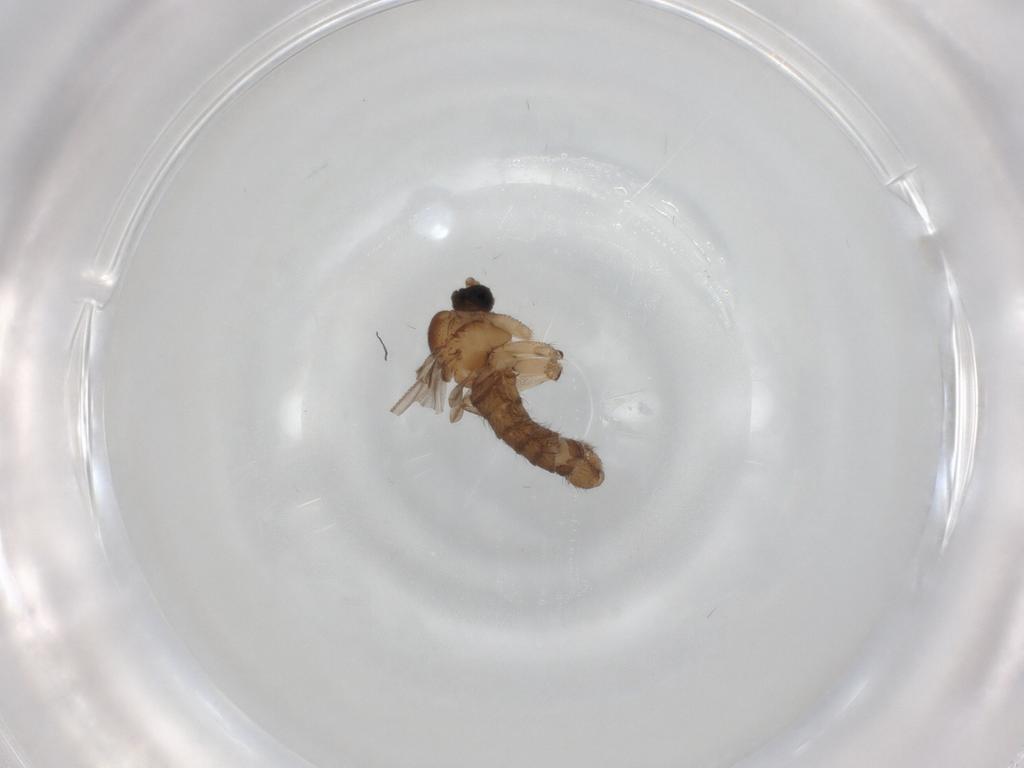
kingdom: Animalia
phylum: Arthropoda
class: Insecta
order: Diptera
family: Sciaridae
